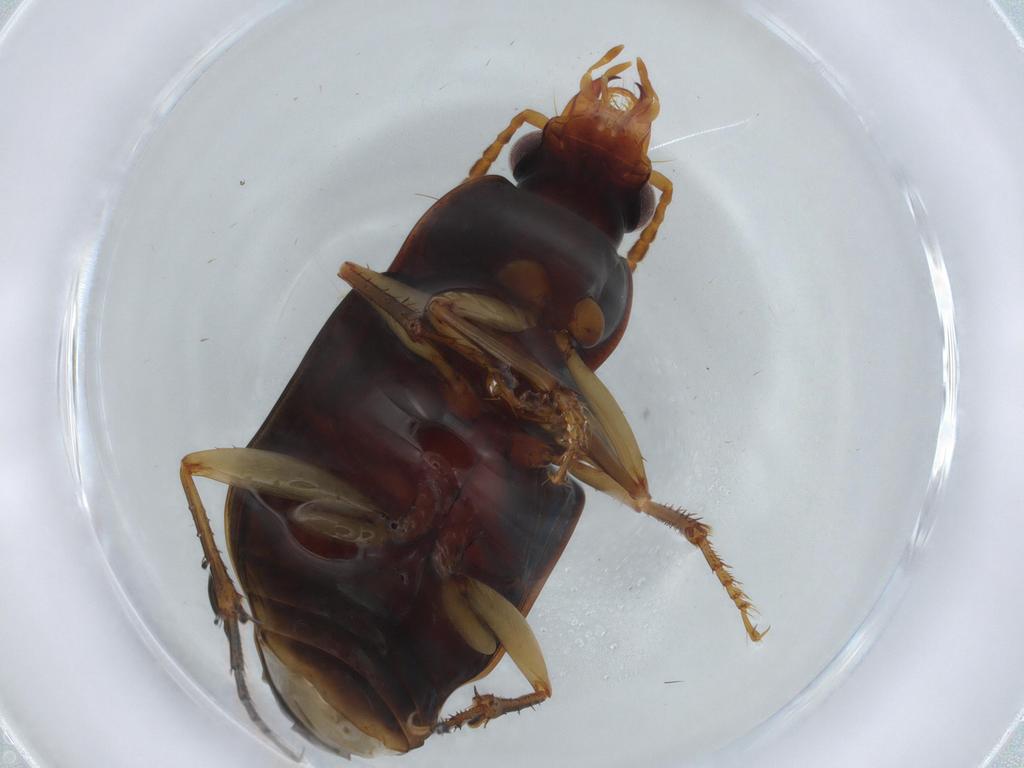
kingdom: Animalia
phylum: Arthropoda
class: Insecta
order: Coleoptera
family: Carabidae
